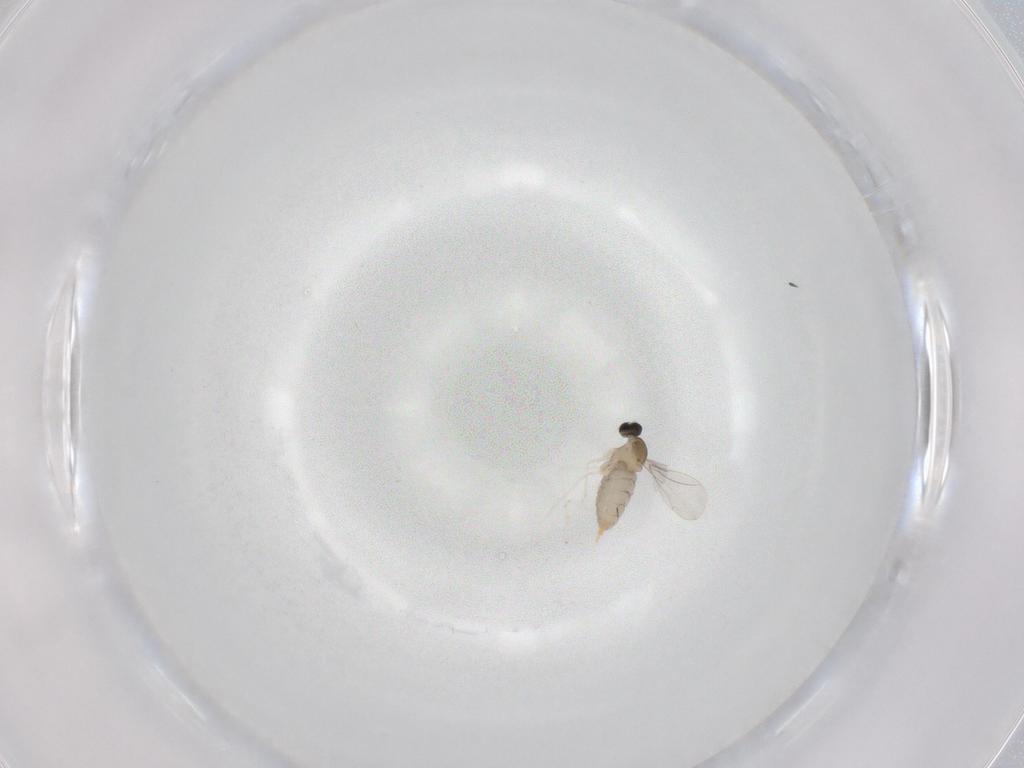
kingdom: Animalia
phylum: Arthropoda
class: Insecta
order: Diptera
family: Cecidomyiidae
